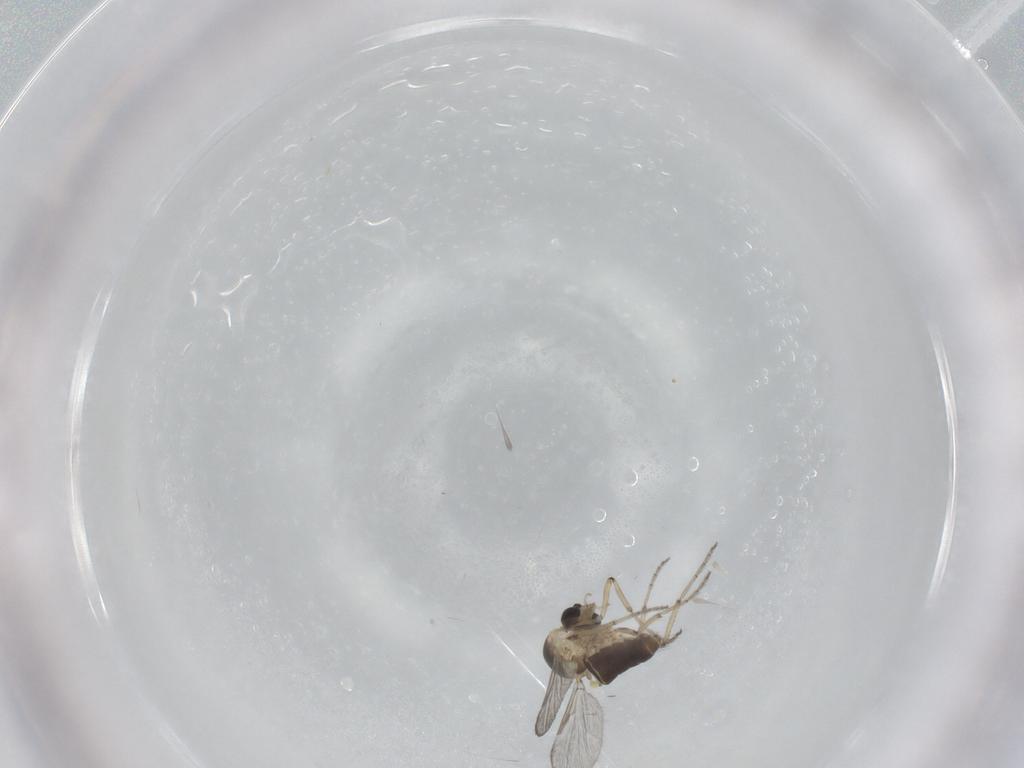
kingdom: Animalia
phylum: Arthropoda
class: Insecta
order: Diptera
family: Ceratopogonidae
